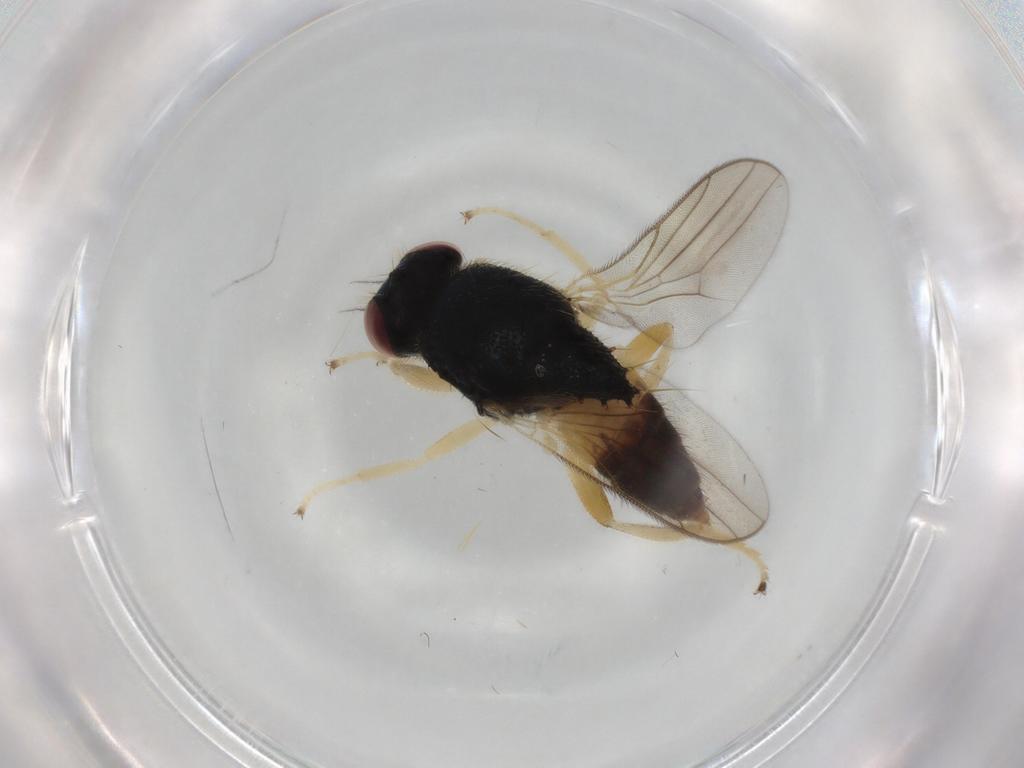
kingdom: Animalia
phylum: Arthropoda
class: Insecta
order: Diptera
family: Chloropidae
